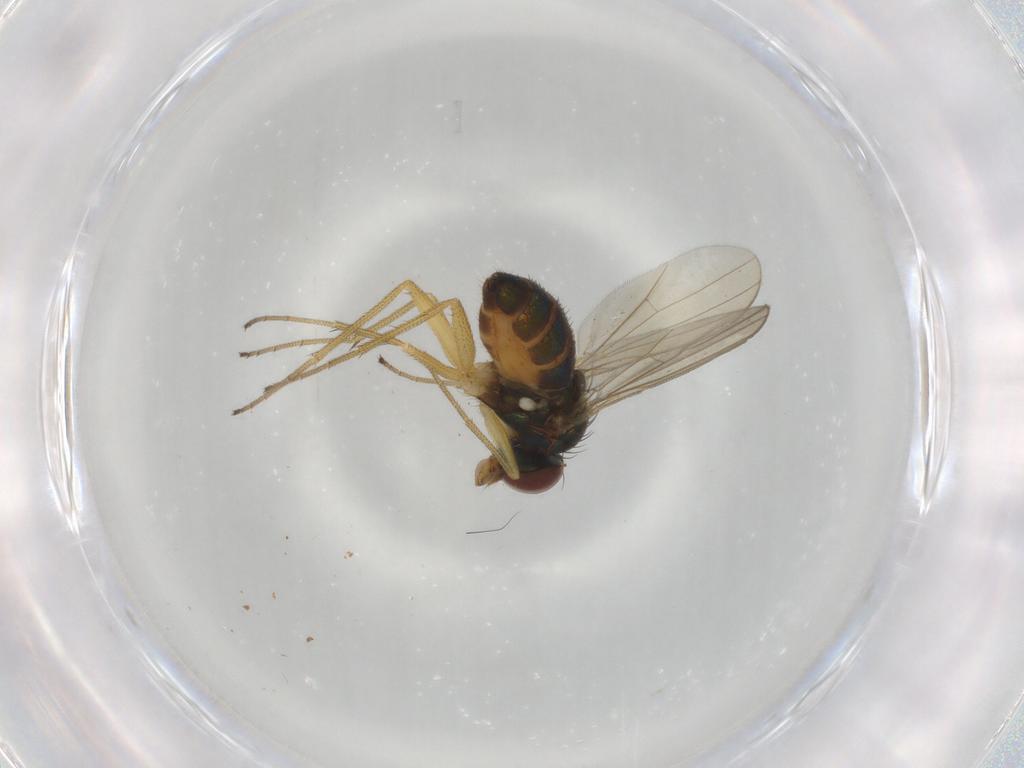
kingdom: Animalia
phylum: Arthropoda
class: Insecta
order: Diptera
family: Dolichopodidae
